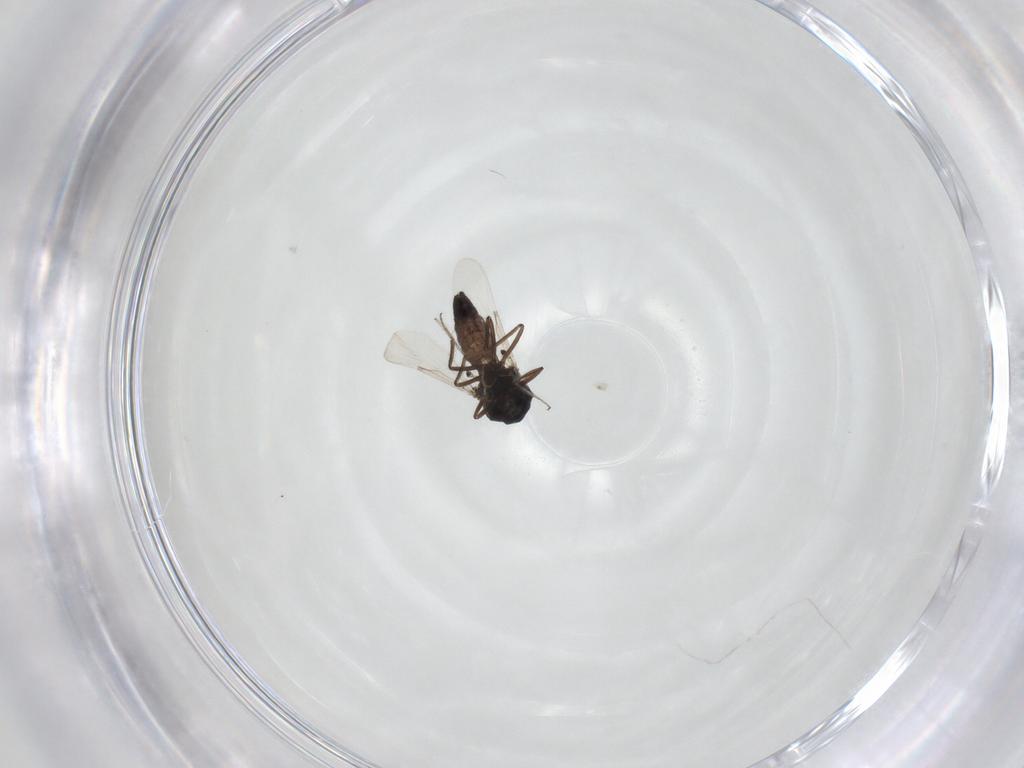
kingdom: Animalia
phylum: Arthropoda
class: Insecta
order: Diptera
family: Ceratopogonidae
